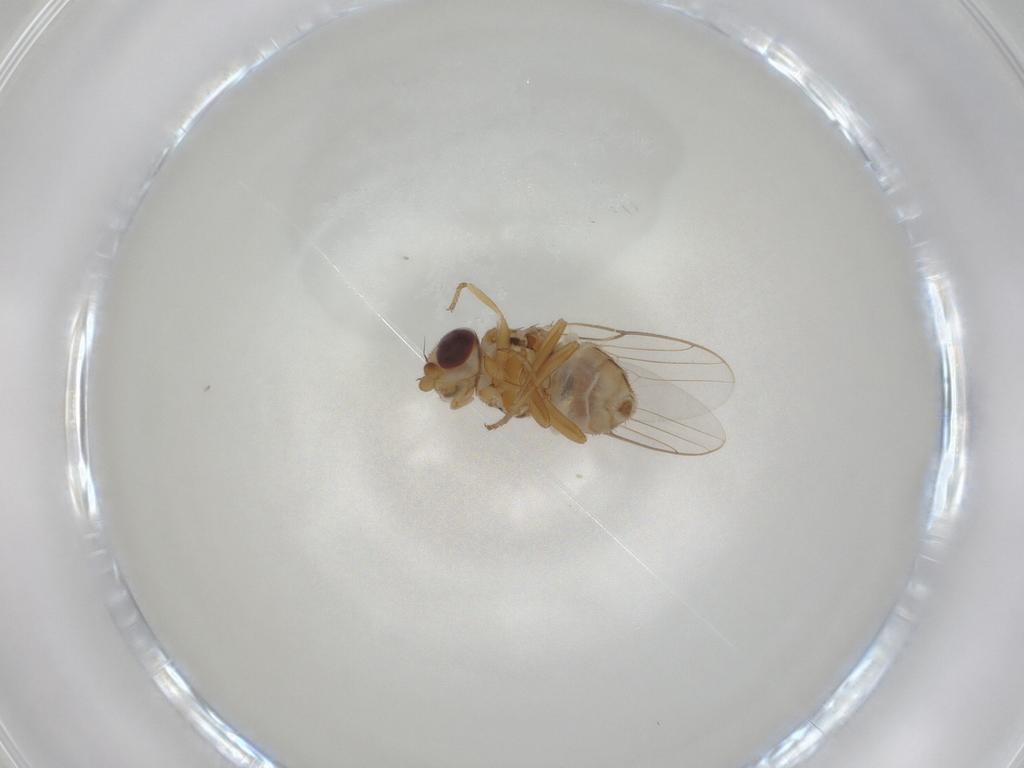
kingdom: Animalia
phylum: Arthropoda
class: Insecta
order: Diptera
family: Chloropidae
